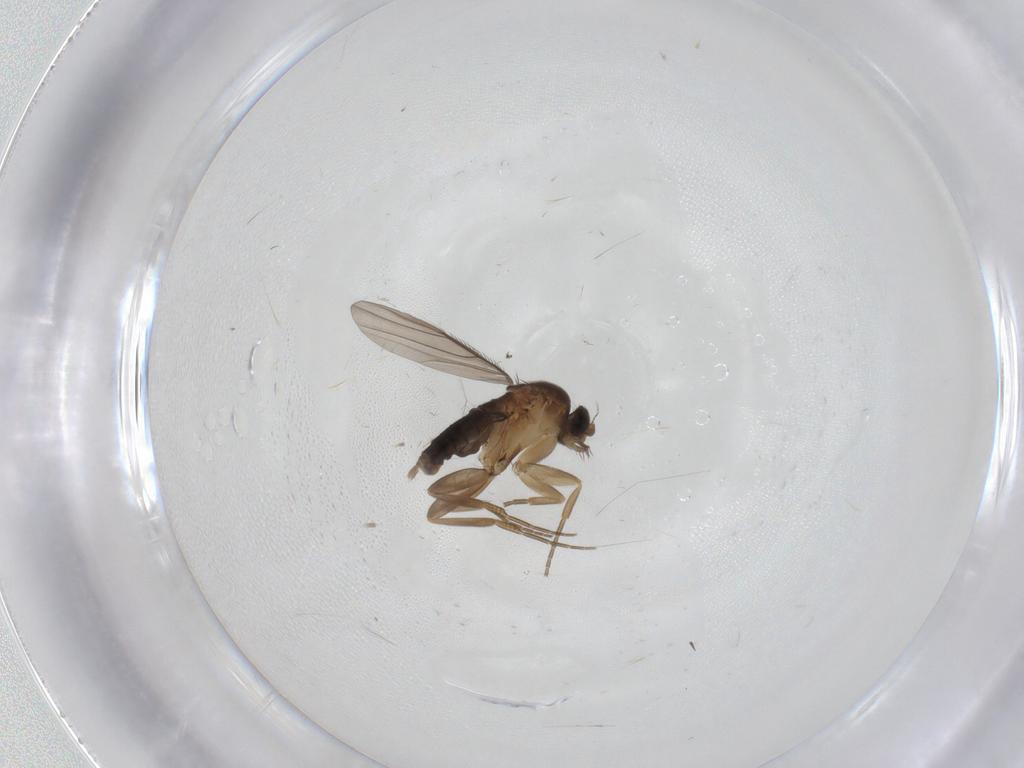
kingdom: Animalia
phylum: Arthropoda
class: Insecta
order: Diptera
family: Phoridae
